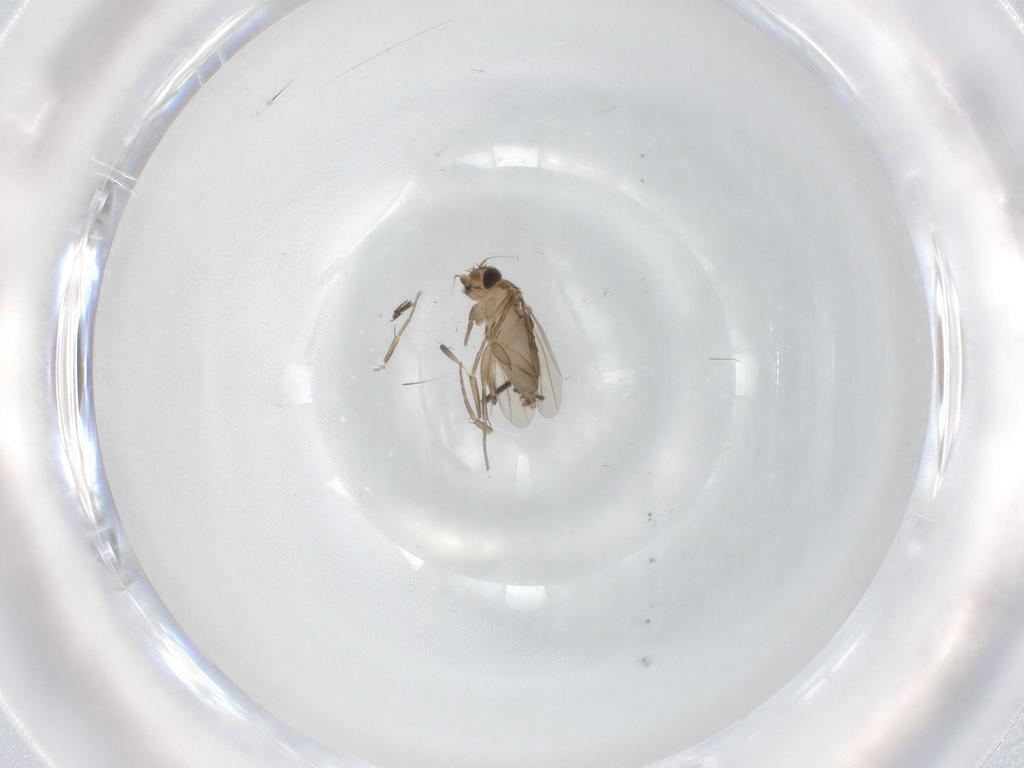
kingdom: Animalia
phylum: Arthropoda
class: Insecta
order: Diptera
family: Phoridae
